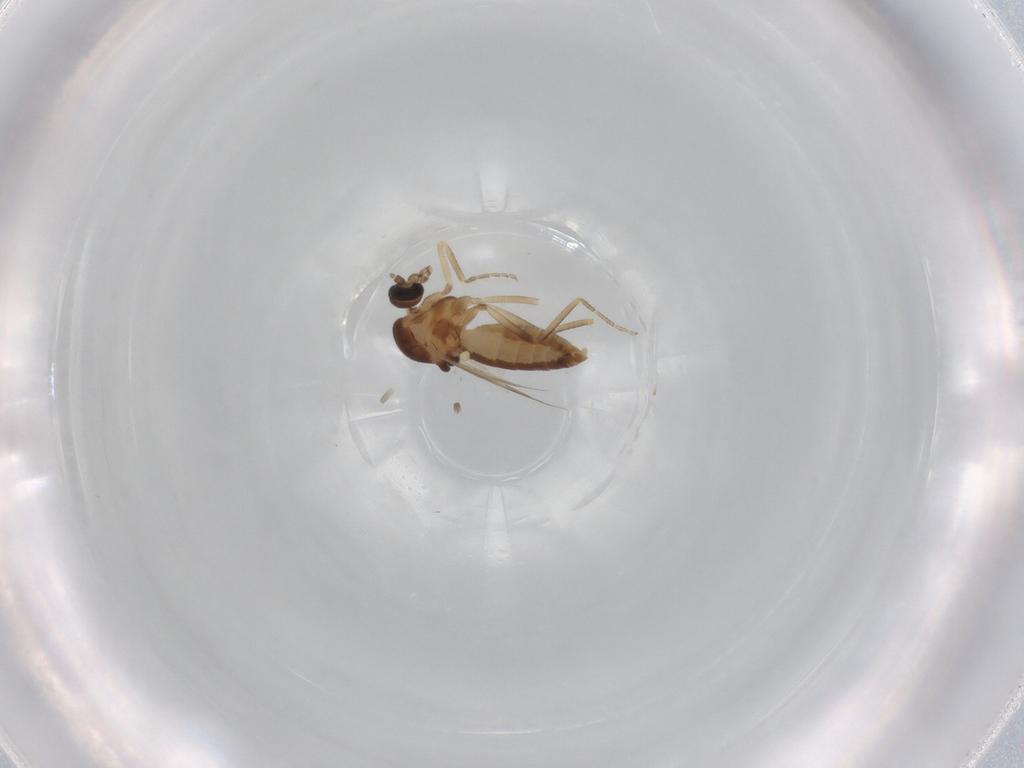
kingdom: Animalia
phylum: Arthropoda
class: Insecta
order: Diptera
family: Ceratopogonidae
